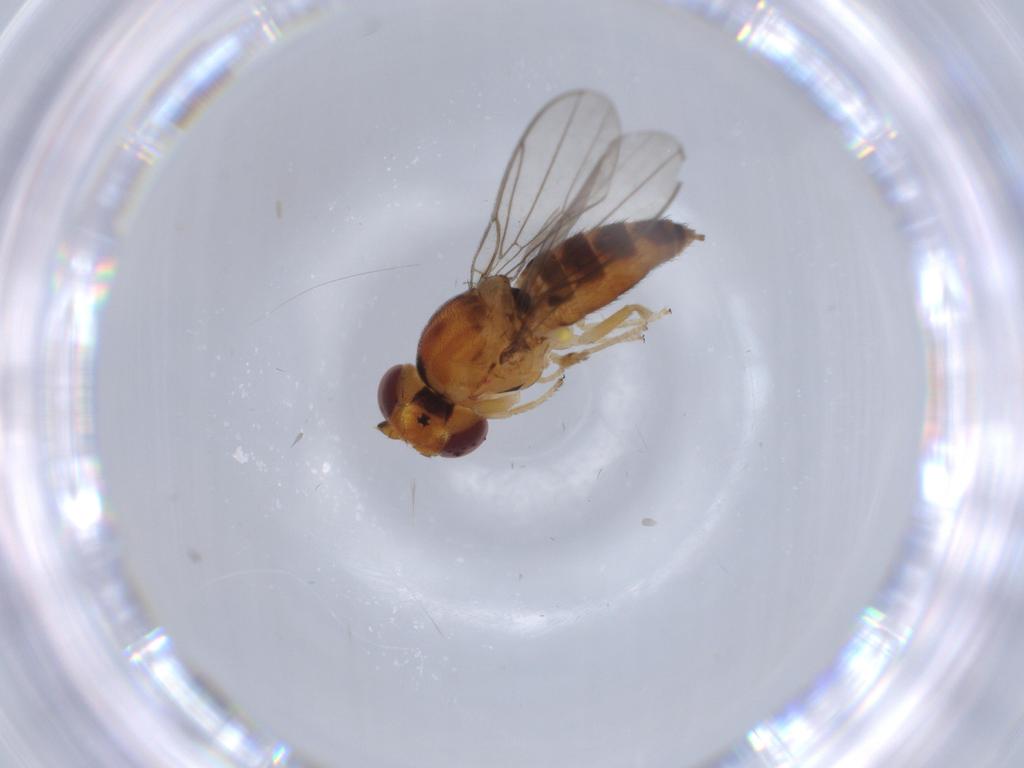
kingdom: Animalia
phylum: Arthropoda
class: Insecta
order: Diptera
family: Chloropidae
